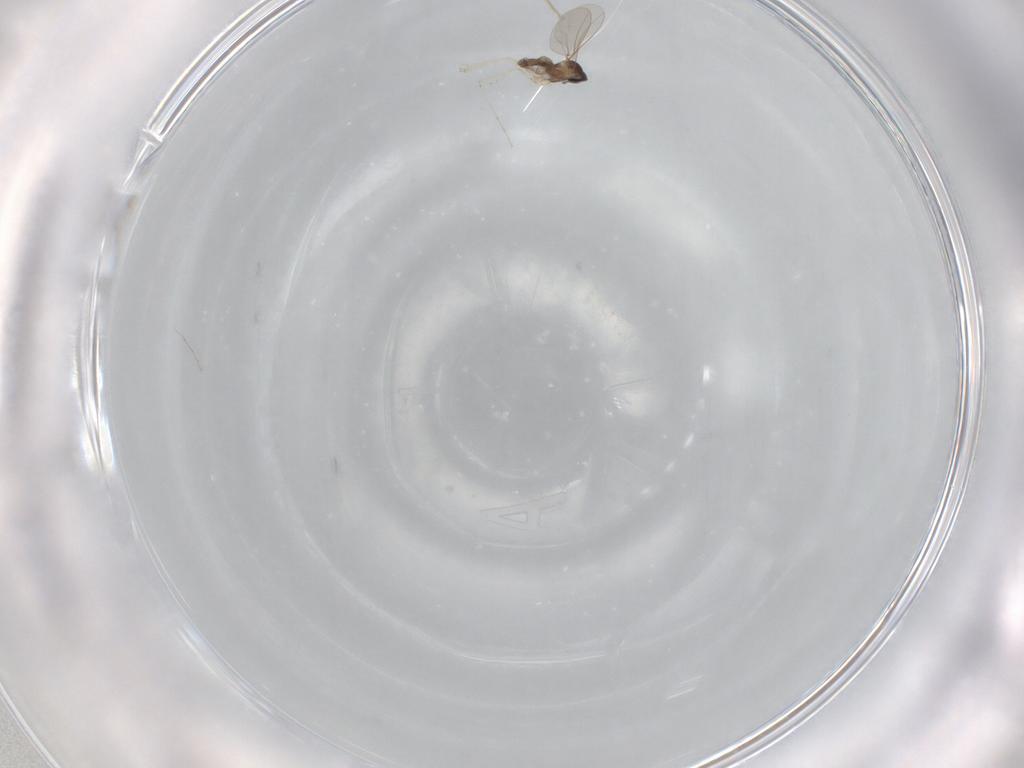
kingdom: Animalia
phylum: Arthropoda
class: Insecta
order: Diptera
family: Cecidomyiidae
